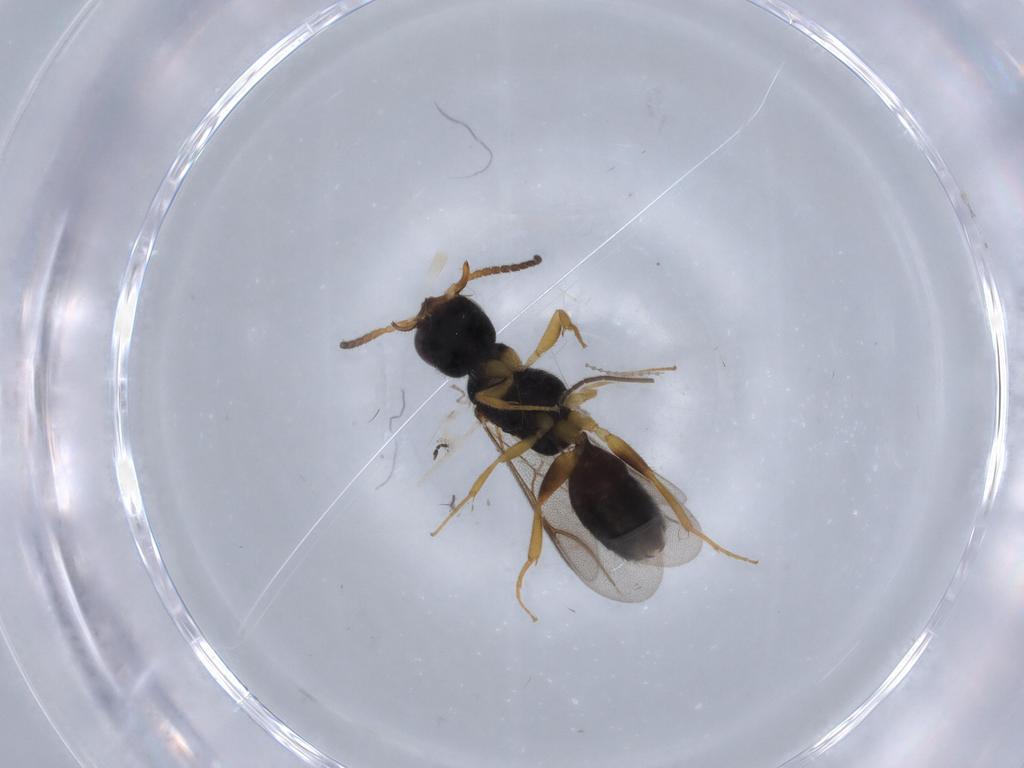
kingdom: Animalia
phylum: Arthropoda
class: Insecta
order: Hymenoptera
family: Bethylidae
